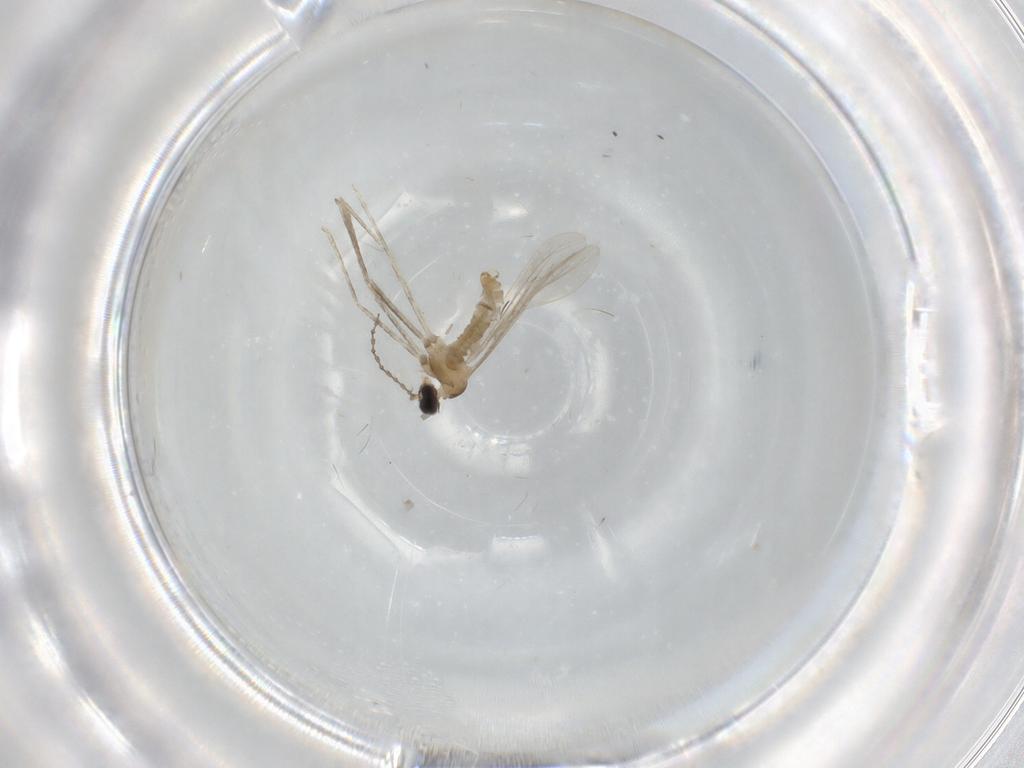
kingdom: Animalia
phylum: Arthropoda
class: Insecta
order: Diptera
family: Cecidomyiidae
